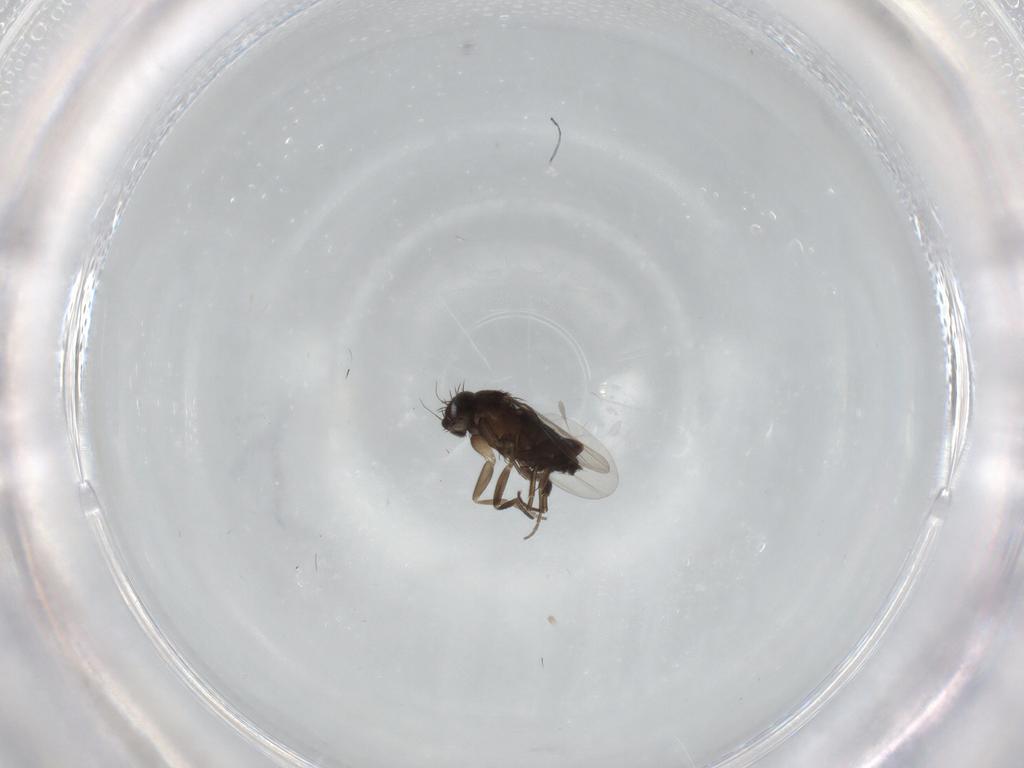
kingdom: Animalia
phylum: Arthropoda
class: Insecta
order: Diptera
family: Phoridae
